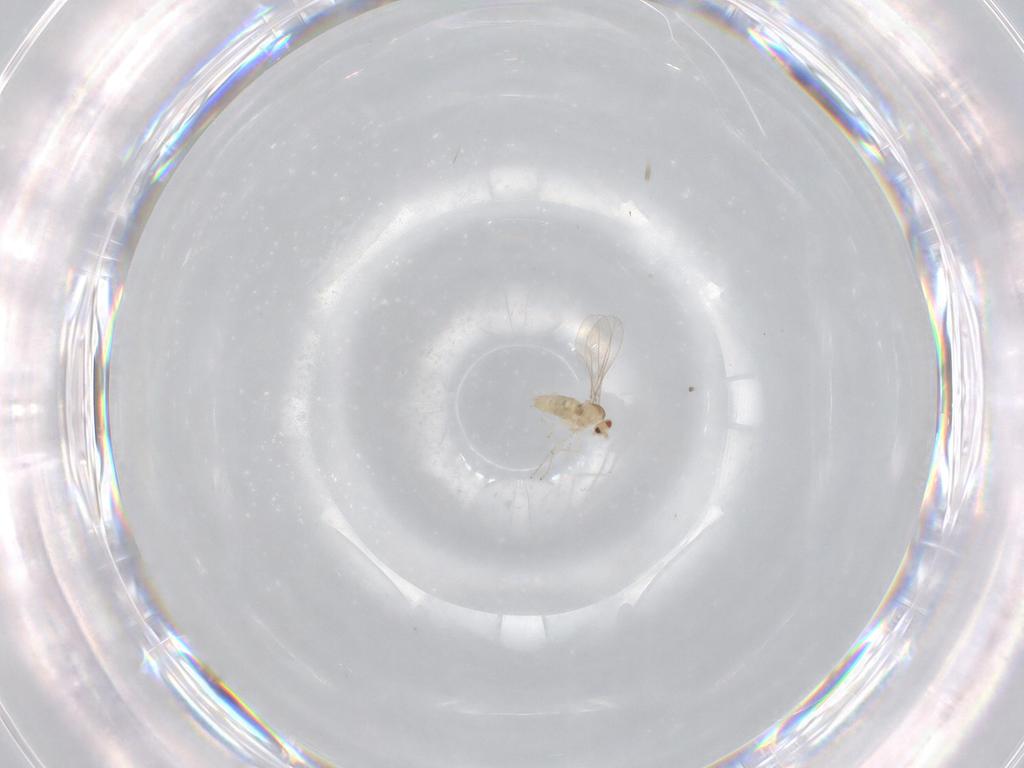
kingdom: Animalia
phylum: Arthropoda
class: Insecta
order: Diptera
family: Cecidomyiidae
